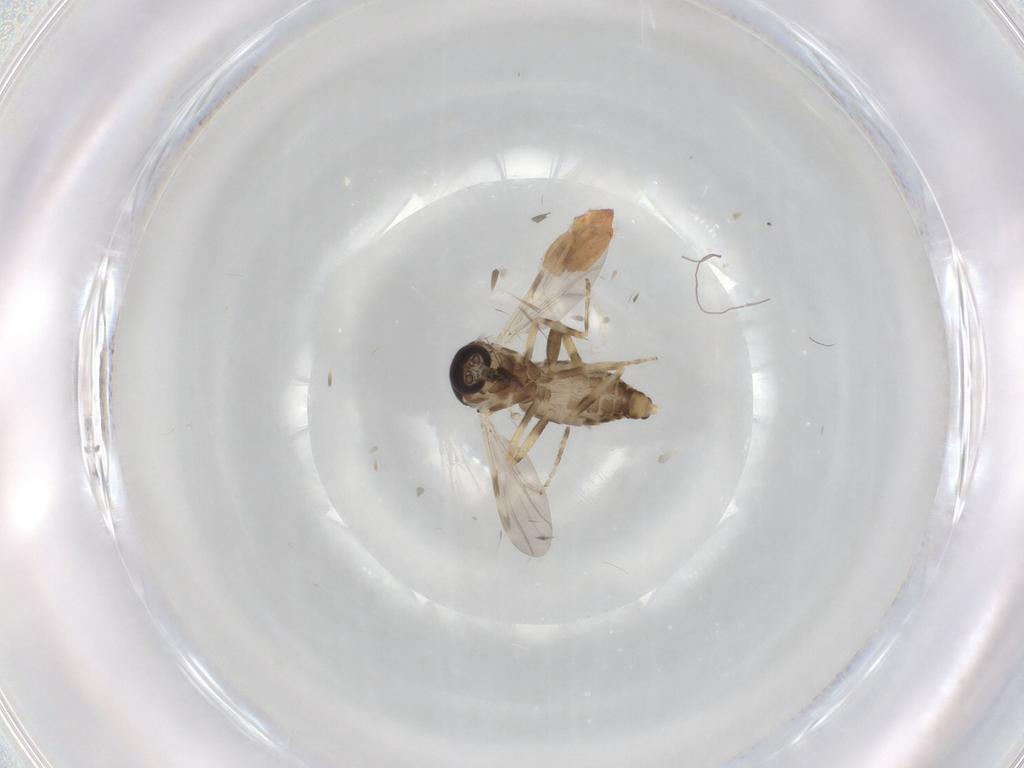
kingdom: Animalia
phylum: Arthropoda
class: Insecta
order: Diptera
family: Ceratopogonidae
